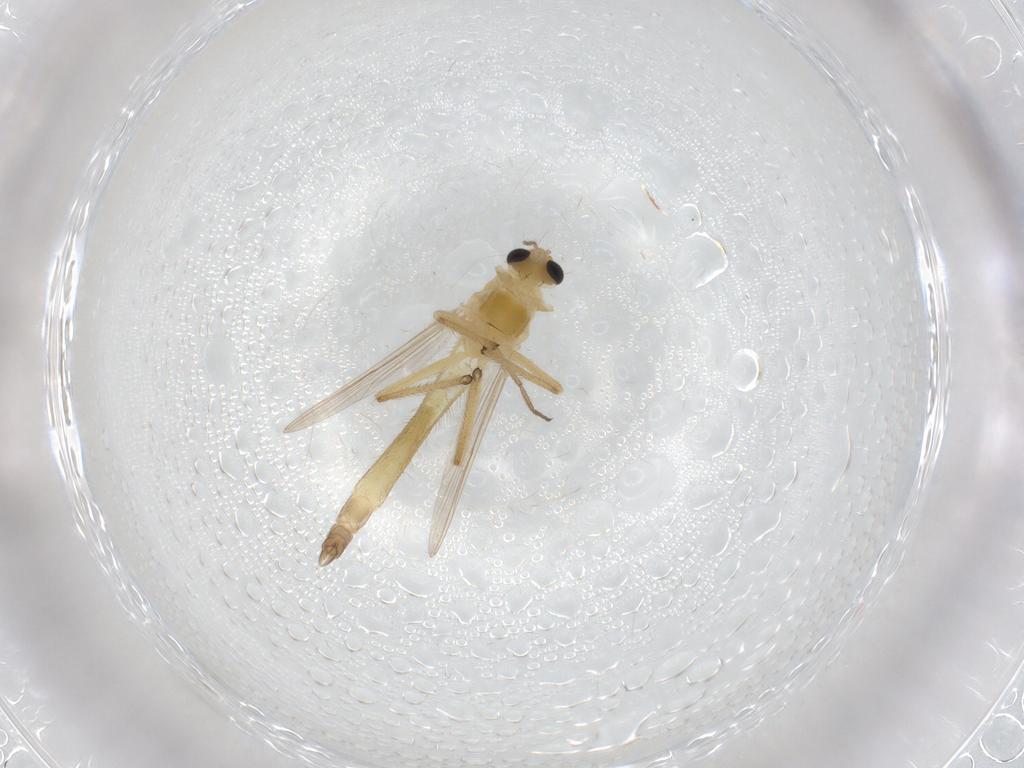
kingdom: Animalia
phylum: Arthropoda
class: Insecta
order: Diptera
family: Chironomidae
